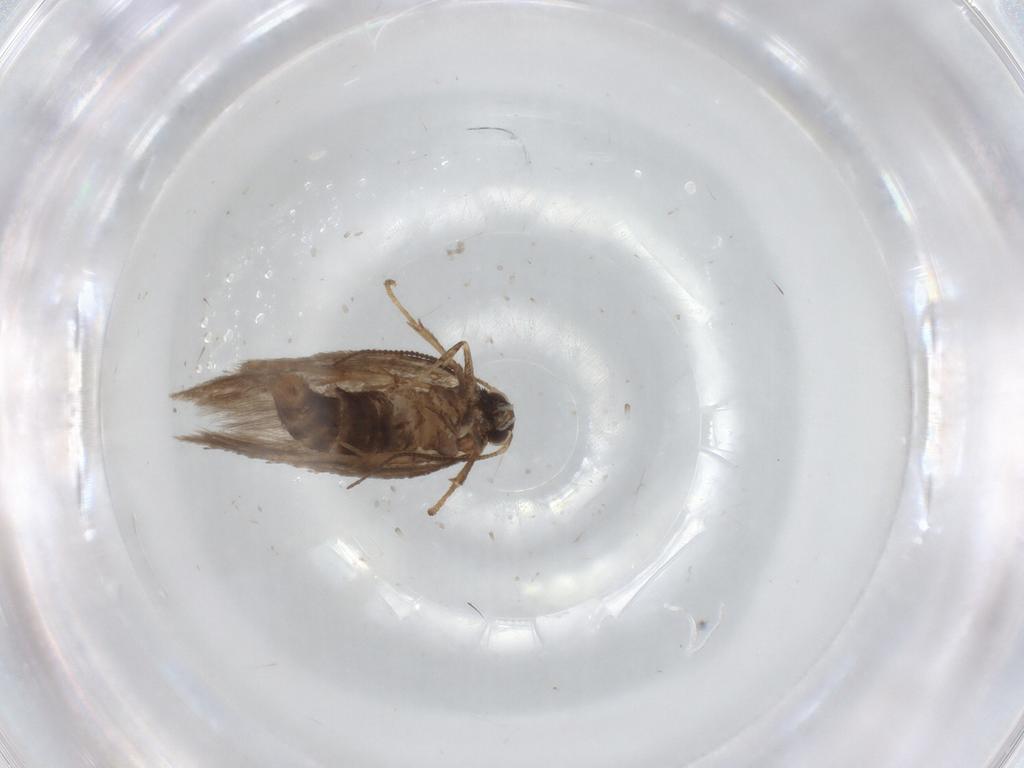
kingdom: Animalia
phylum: Arthropoda
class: Insecta
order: Lepidoptera
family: Nepticulidae
